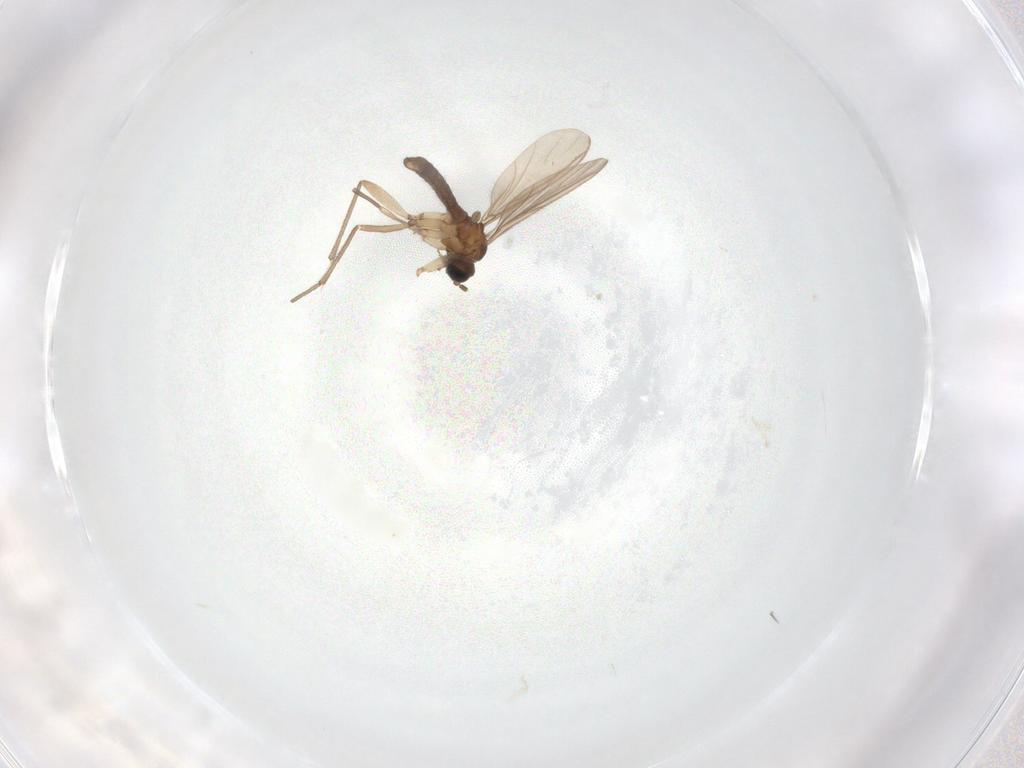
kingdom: Animalia
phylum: Arthropoda
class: Insecta
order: Diptera
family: Sciaridae
